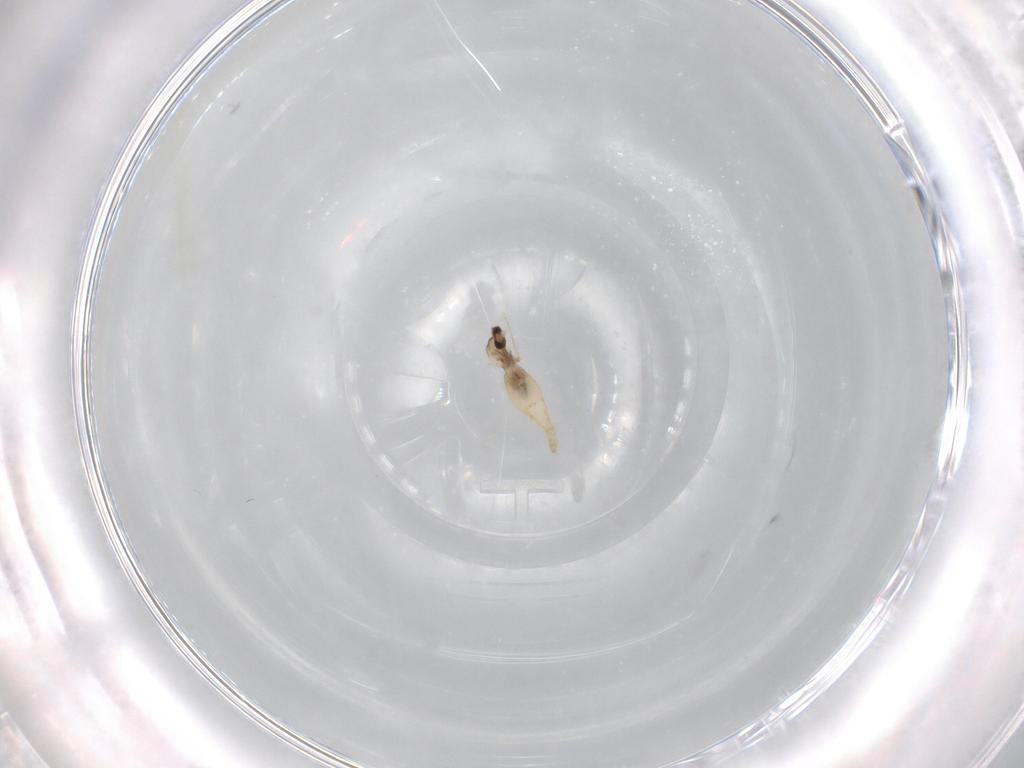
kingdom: Animalia
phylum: Arthropoda
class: Insecta
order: Diptera
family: Cecidomyiidae
